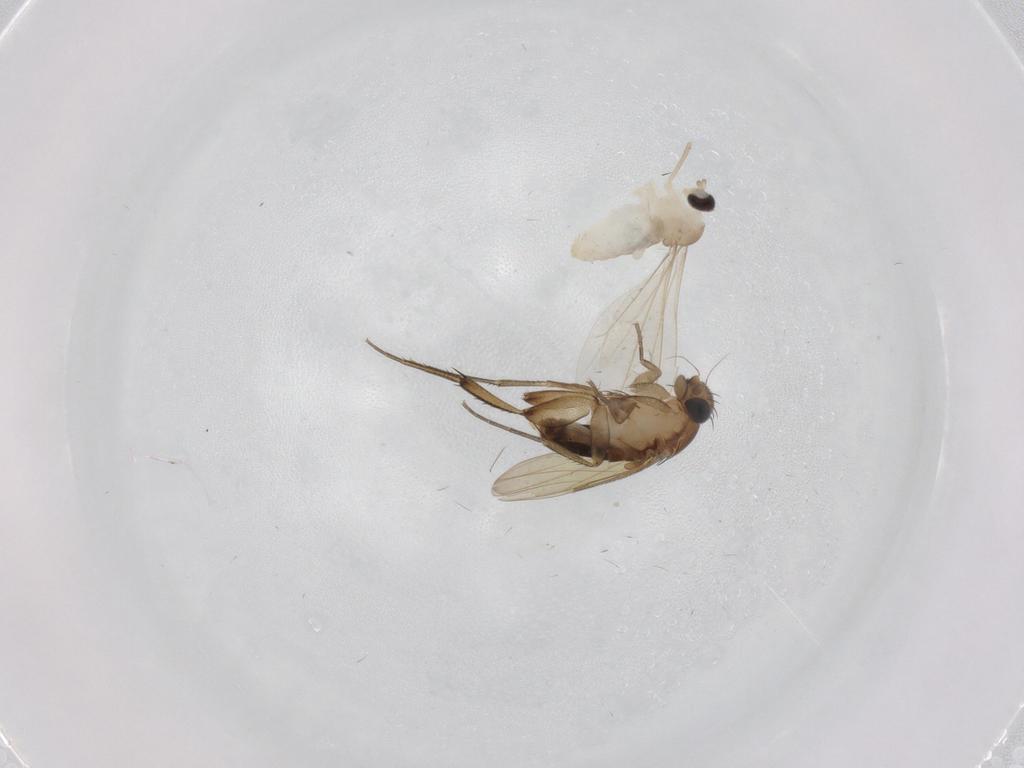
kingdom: Animalia
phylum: Arthropoda
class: Insecta
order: Diptera
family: Phoridae
